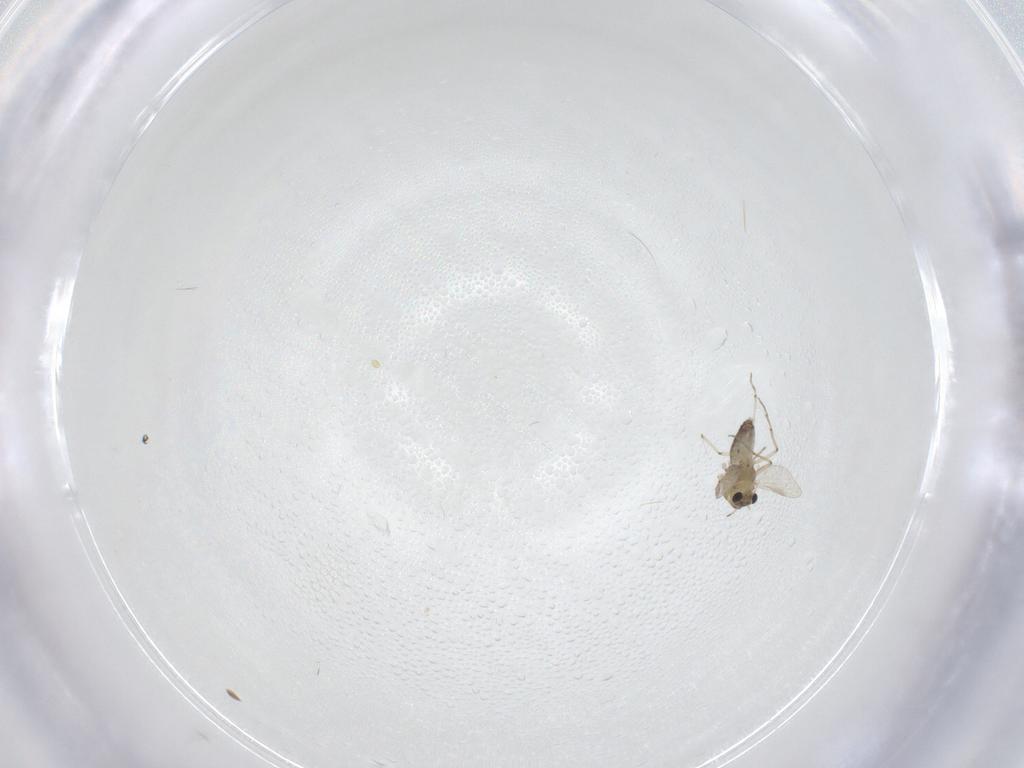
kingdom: Animalia
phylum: Arthropoda
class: Insecta
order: Diptera
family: Chironomidae
